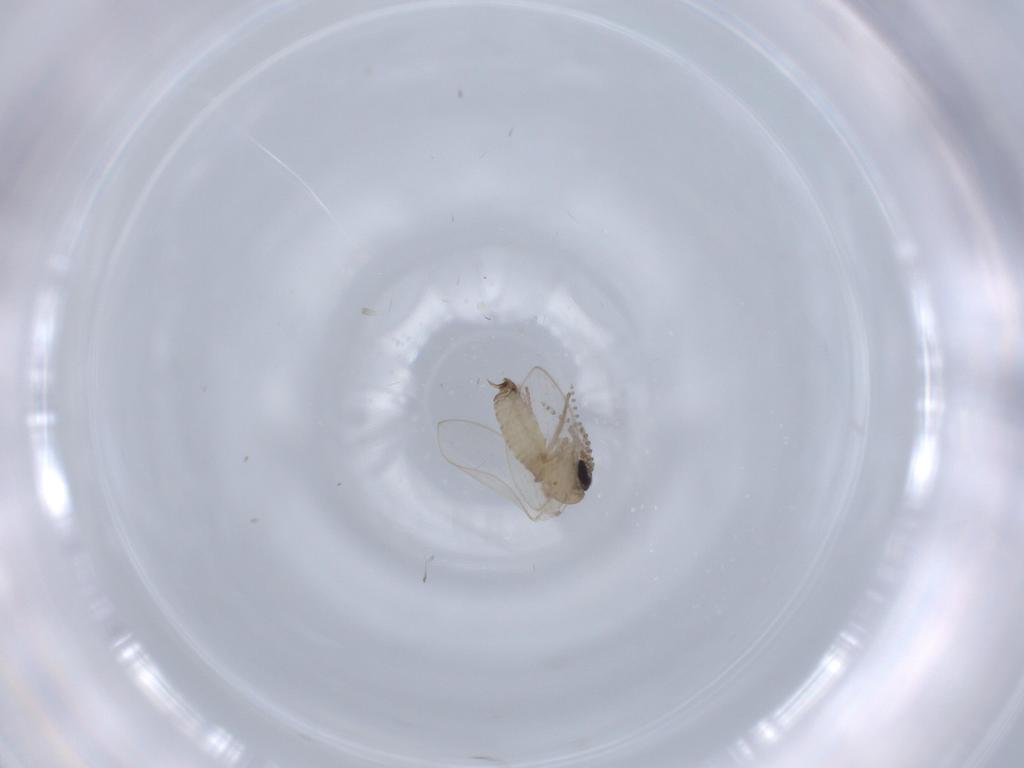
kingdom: Animalia
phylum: Arthropoda
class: Insecta
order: Diptera
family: Psychodidae
